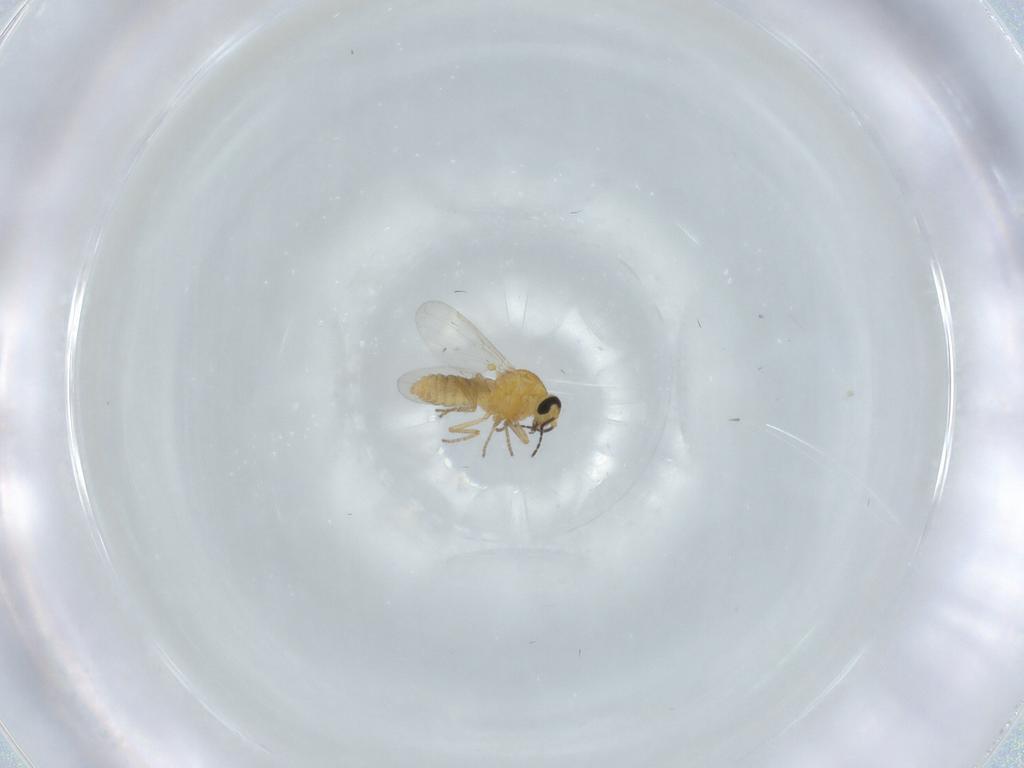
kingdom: Animalia
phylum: Arthropoda
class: Insecta
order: Diptera
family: Ceratopogonidae
